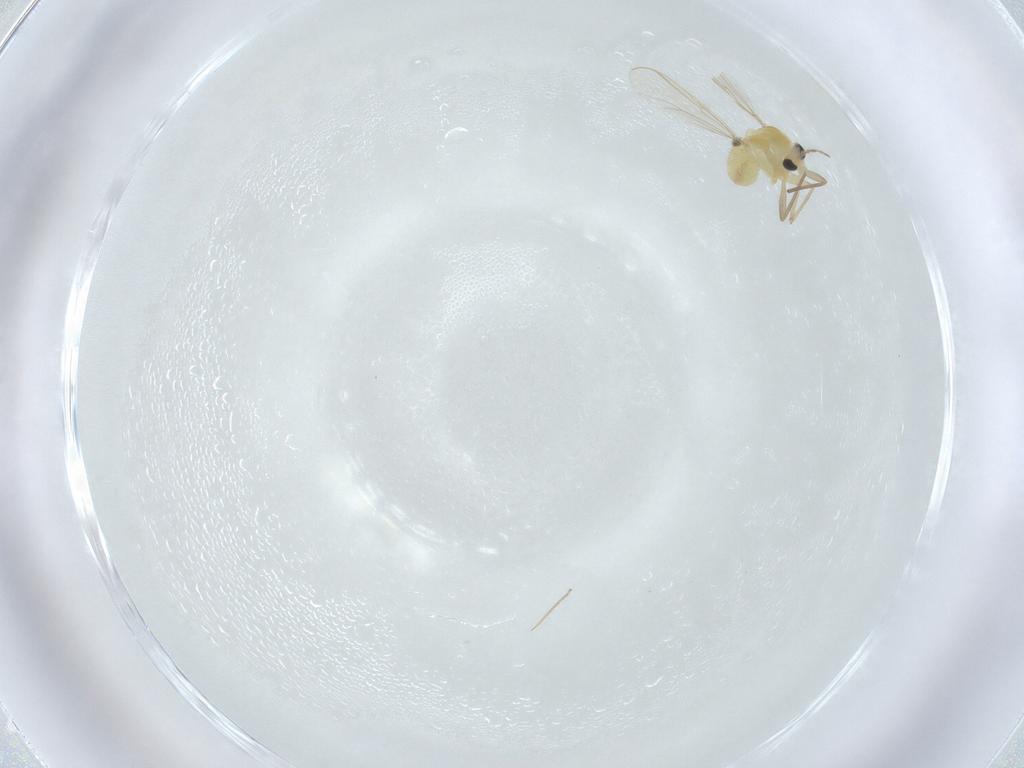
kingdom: Animalia
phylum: Arthropoda
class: Insecta
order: Diptera
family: Chironomidae
